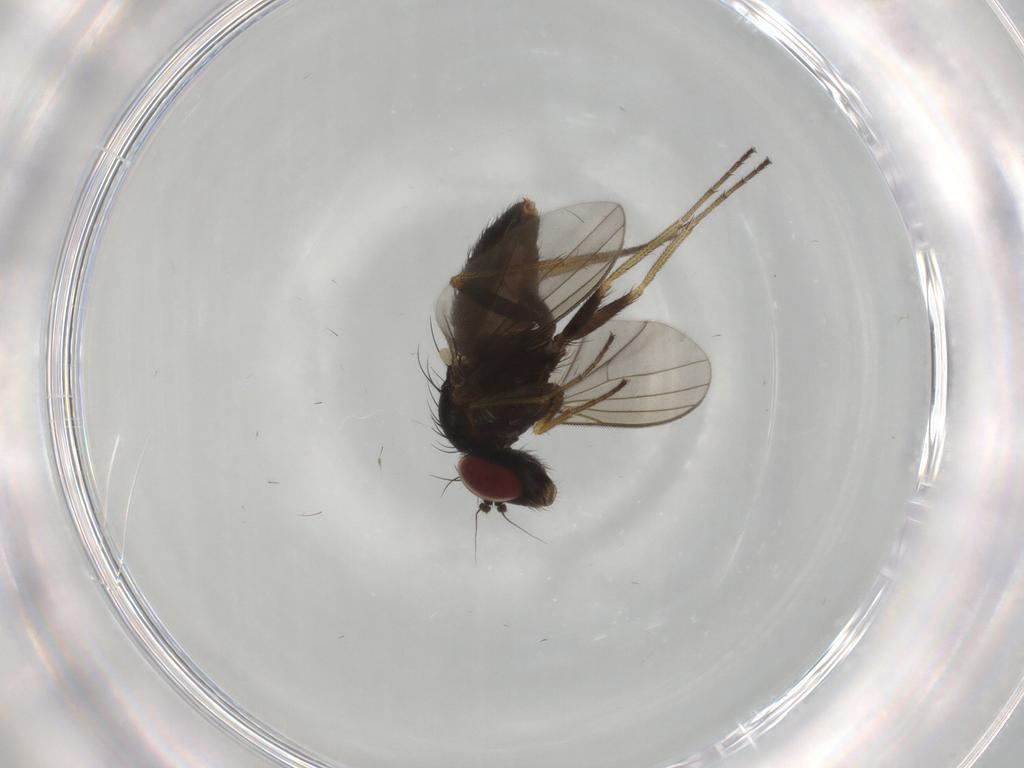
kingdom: Animalia
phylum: Arthropoda
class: Insecta
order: Diptera
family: Dolichopodidae
